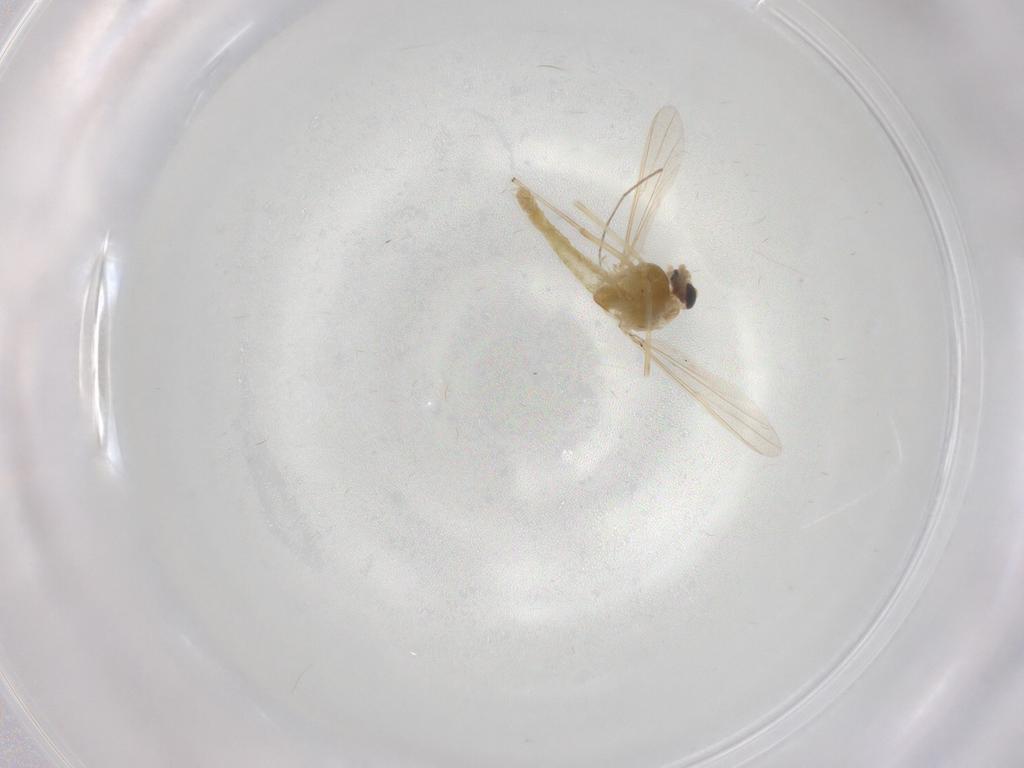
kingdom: Animalia
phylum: Arthropoda
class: Insecta
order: Diptera
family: Chironomidae
